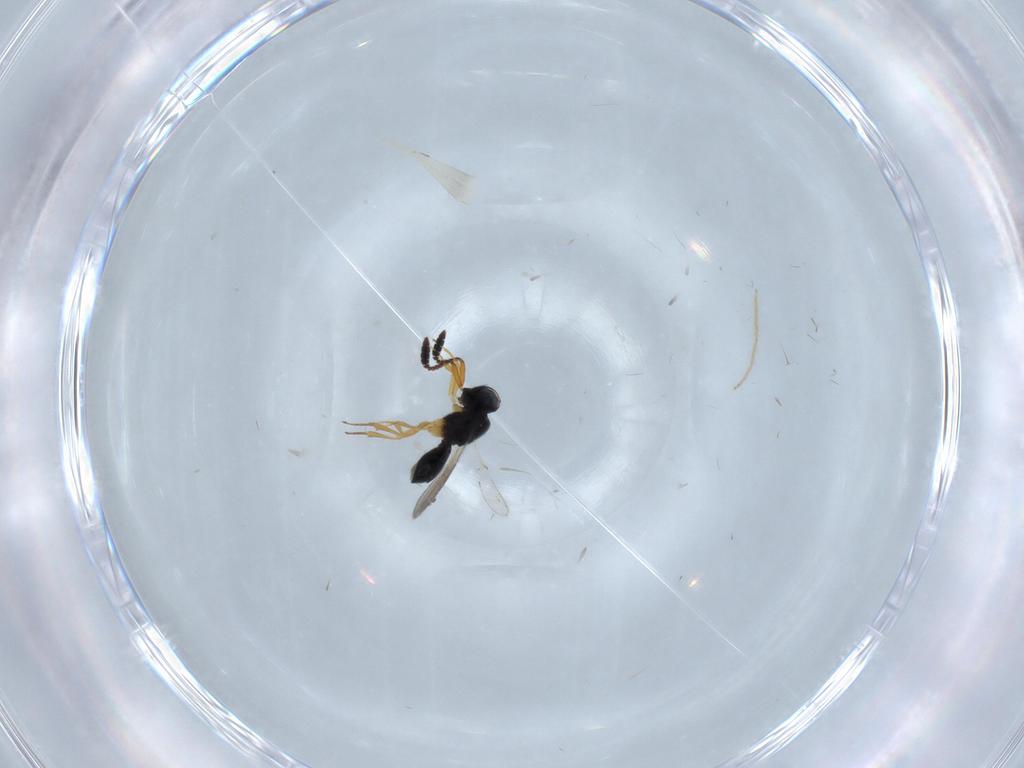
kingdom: Animalia
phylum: Arthropoda
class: Insecta
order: Hymenoptera
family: Scelionidae
